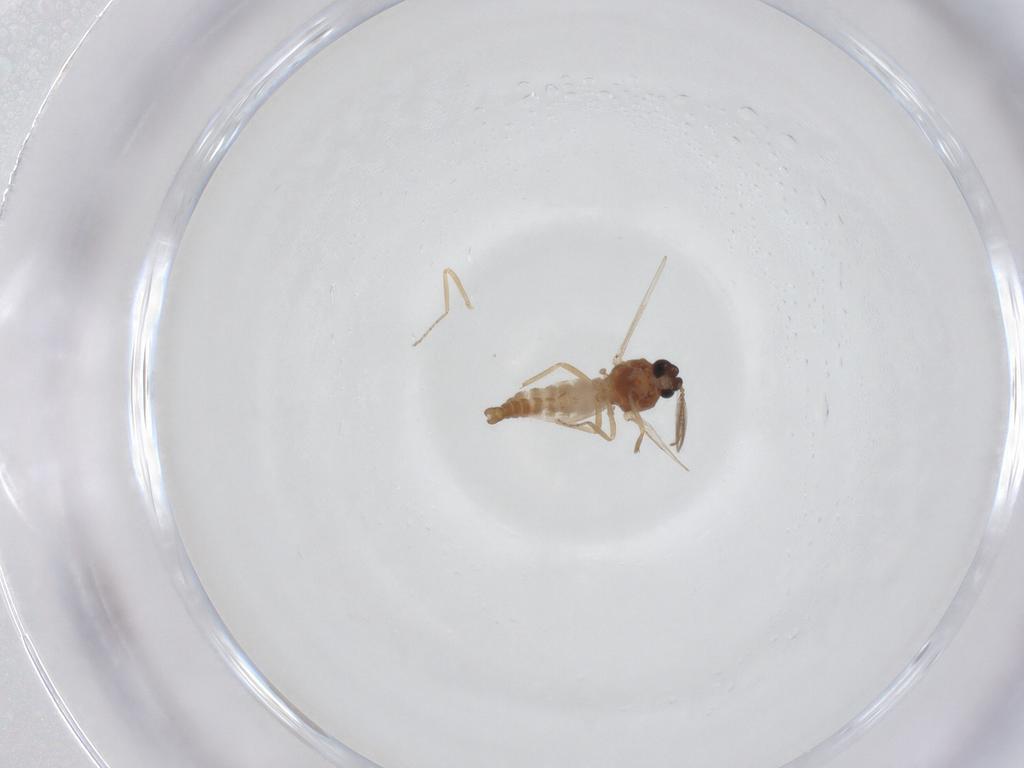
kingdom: Animalia
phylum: Arthropoda
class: Insecta
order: Diptera
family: Ceratopogonidae
